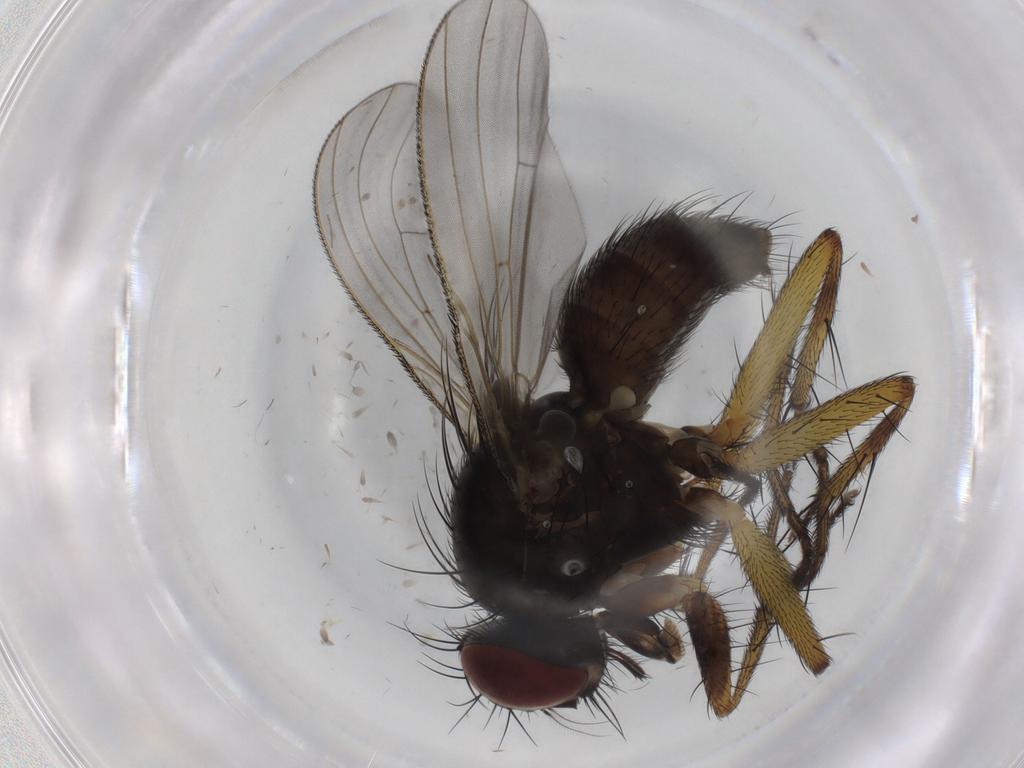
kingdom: Animalia
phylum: Arthropoda
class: Insecta
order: Diptera
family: Muscidae
